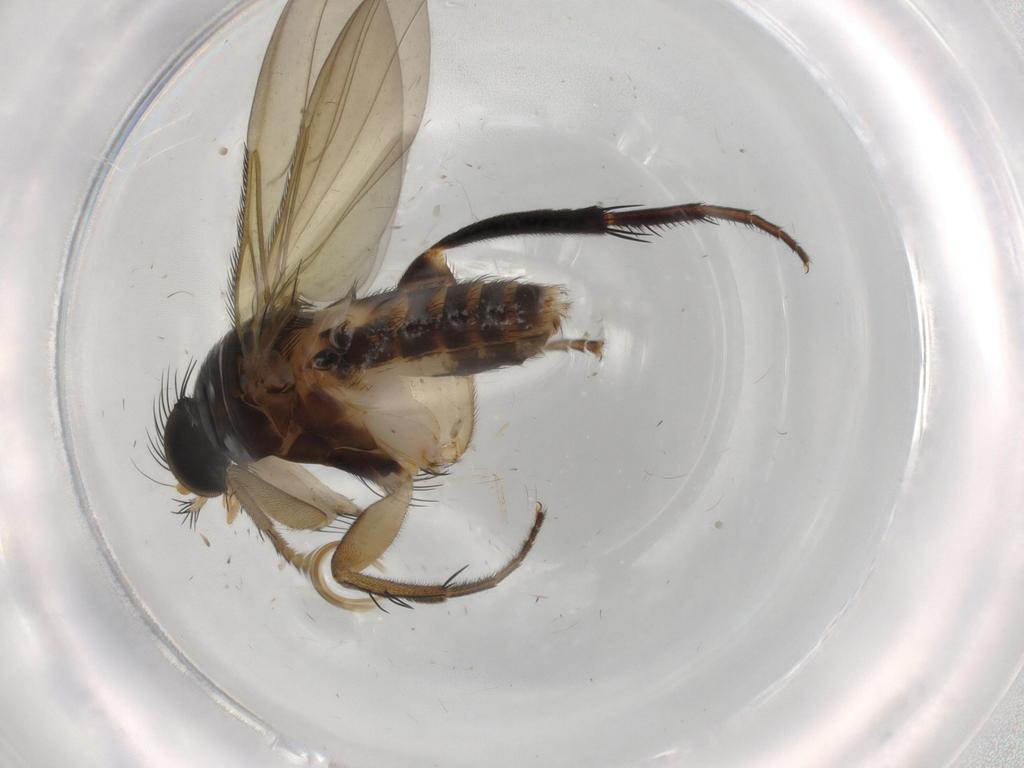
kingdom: Animalia
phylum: Arthropoda
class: Insecta
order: Diptera
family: Phoridae
